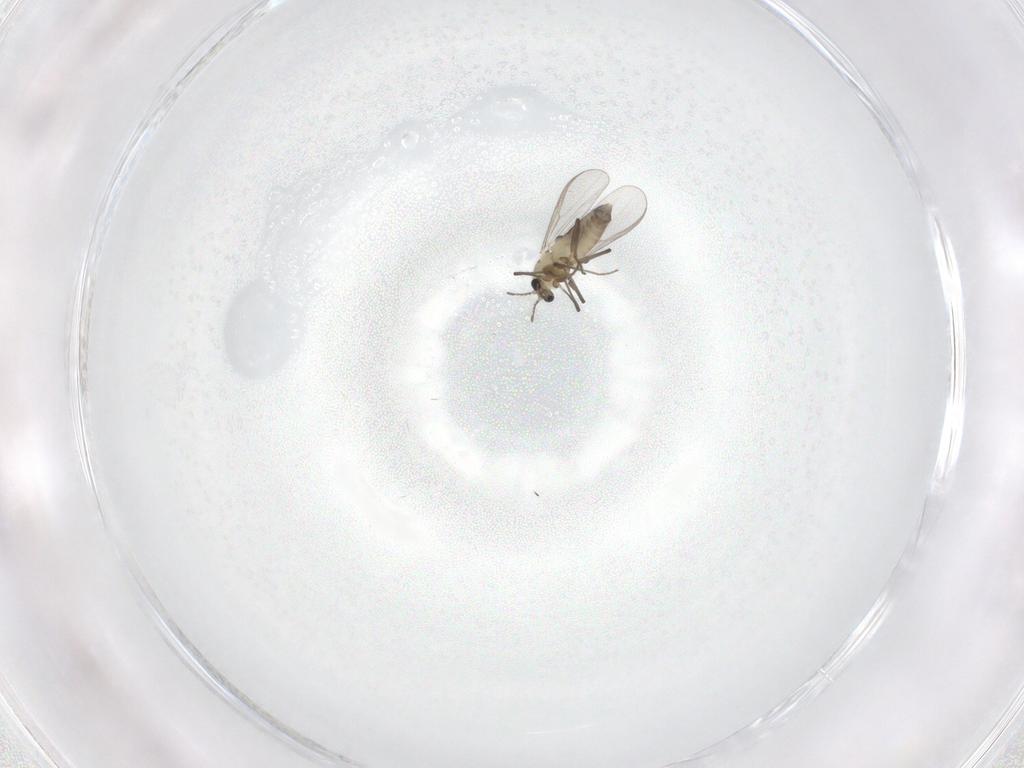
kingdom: Animalia
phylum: Arthropoda
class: Insecta
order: Diptera
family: Chironomidae
